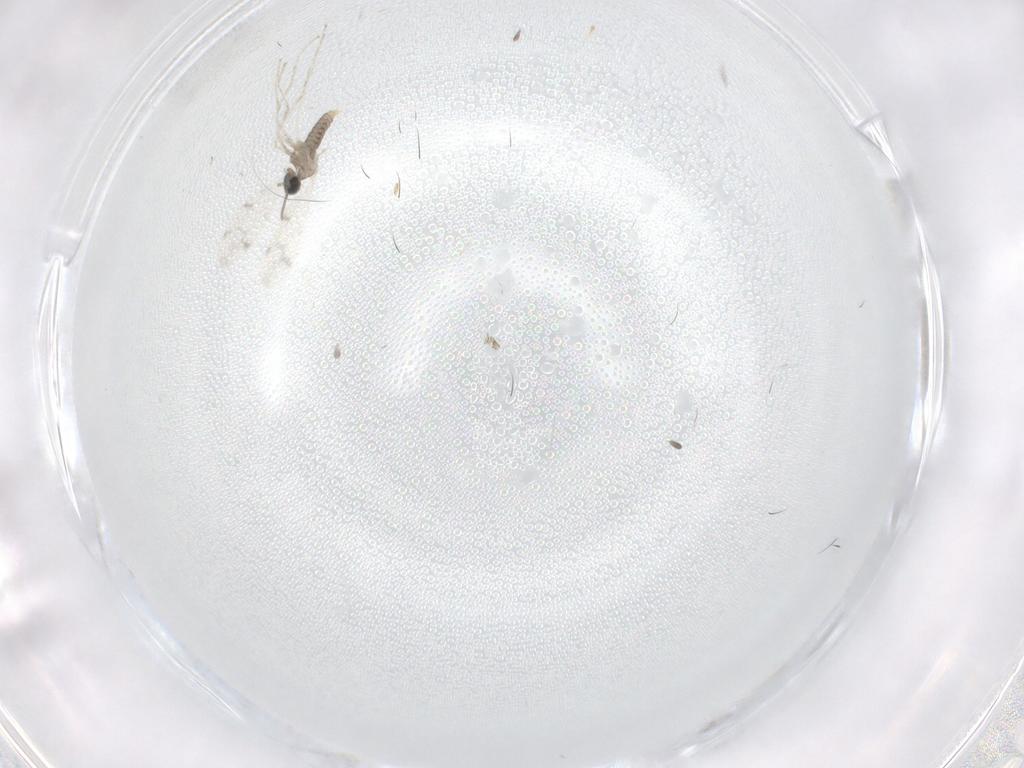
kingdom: Animalia
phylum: Arthropoda
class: Insecta
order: Diptera
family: Cecidomyiidae
